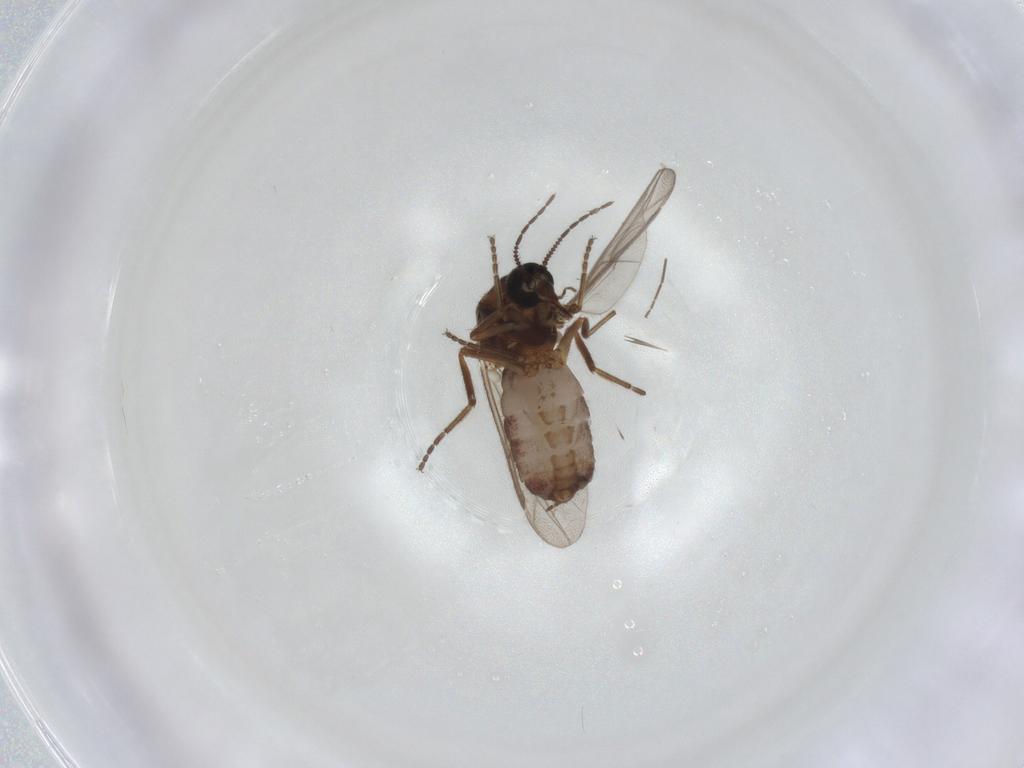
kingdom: Animalia
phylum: Arthropoda
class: Insecta
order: Diptera
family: Ceratopogonidae
